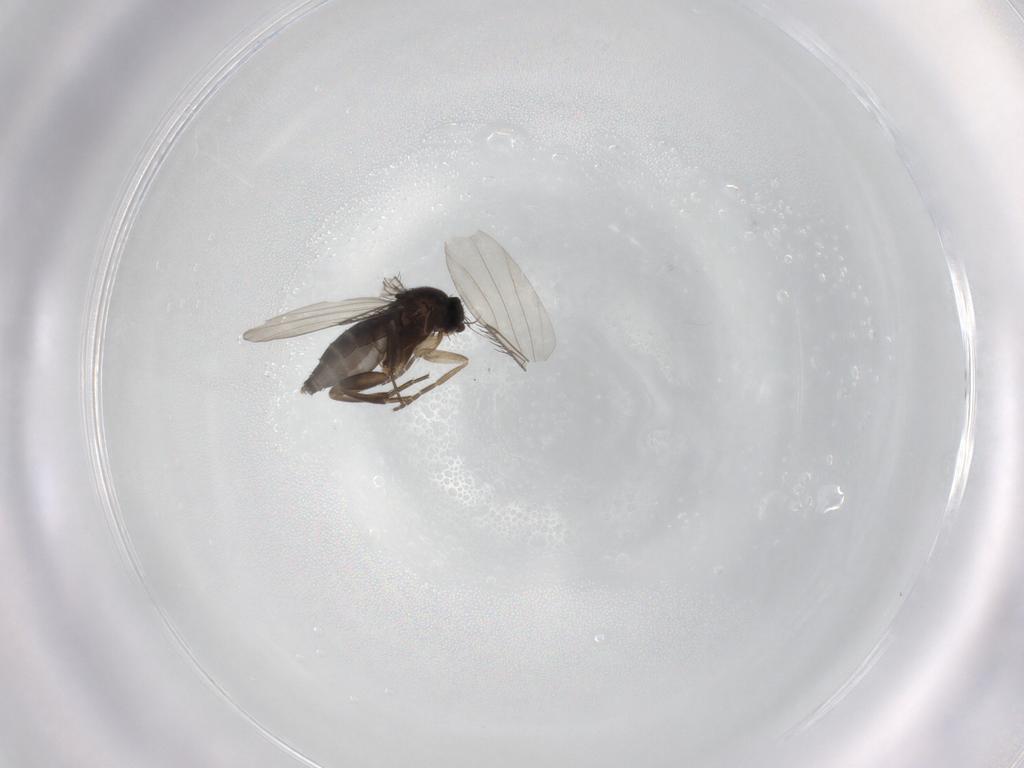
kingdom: Animalia
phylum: Arthropoda
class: Insecta
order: Diptera
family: Phoridae
